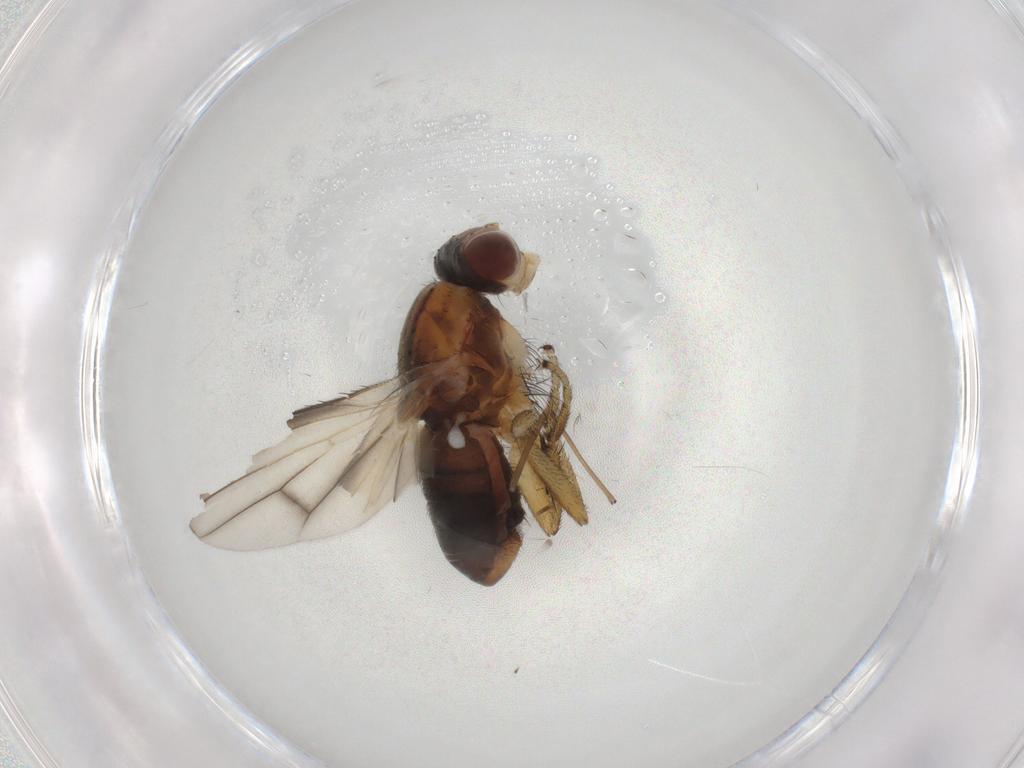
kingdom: Animalia
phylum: Arthropoda
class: Insecta
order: Diptera
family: Heleomyzidae
